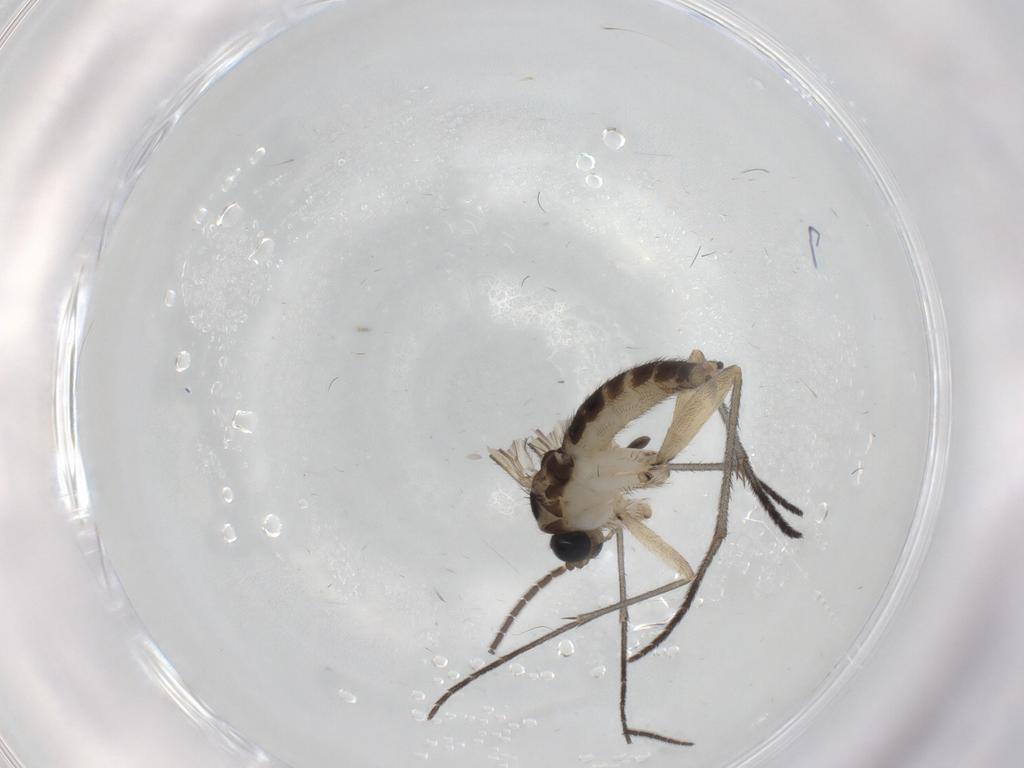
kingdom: Animalia
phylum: Arthropoda
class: Insecta
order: Diptera
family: Sciaridae
